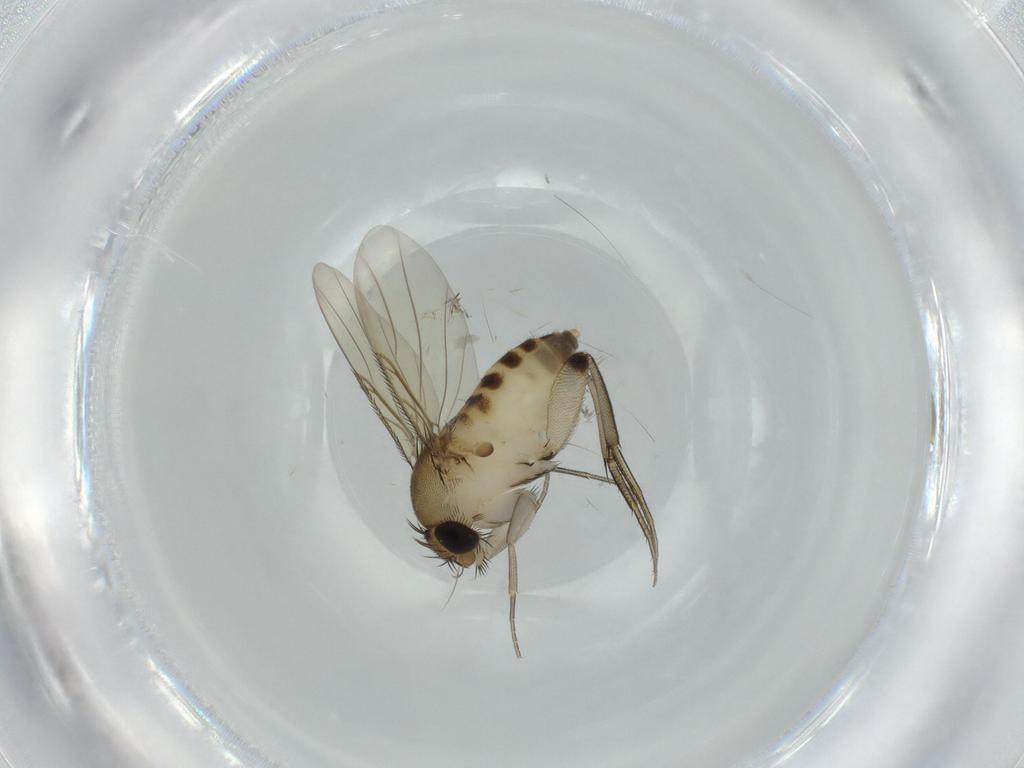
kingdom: Animalia
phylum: Arthropoda
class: Insecta
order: Diptera
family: Phoridae
